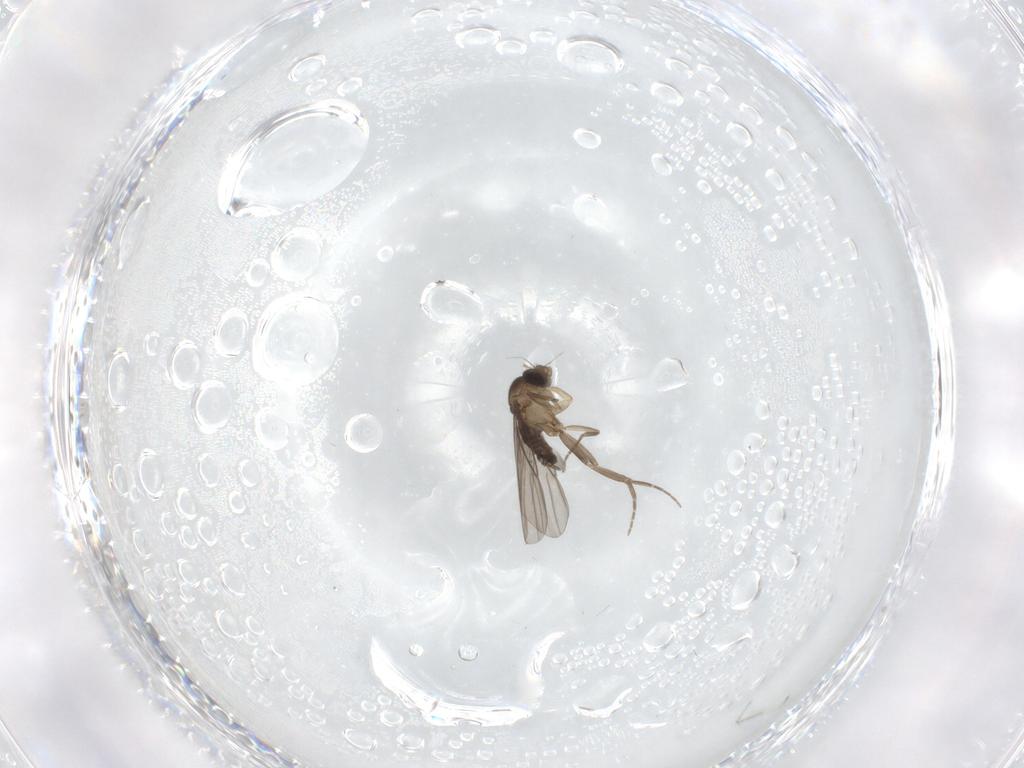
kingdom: Animalia
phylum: Arthropoda
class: Insecta
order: Diptera
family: Phoridae
